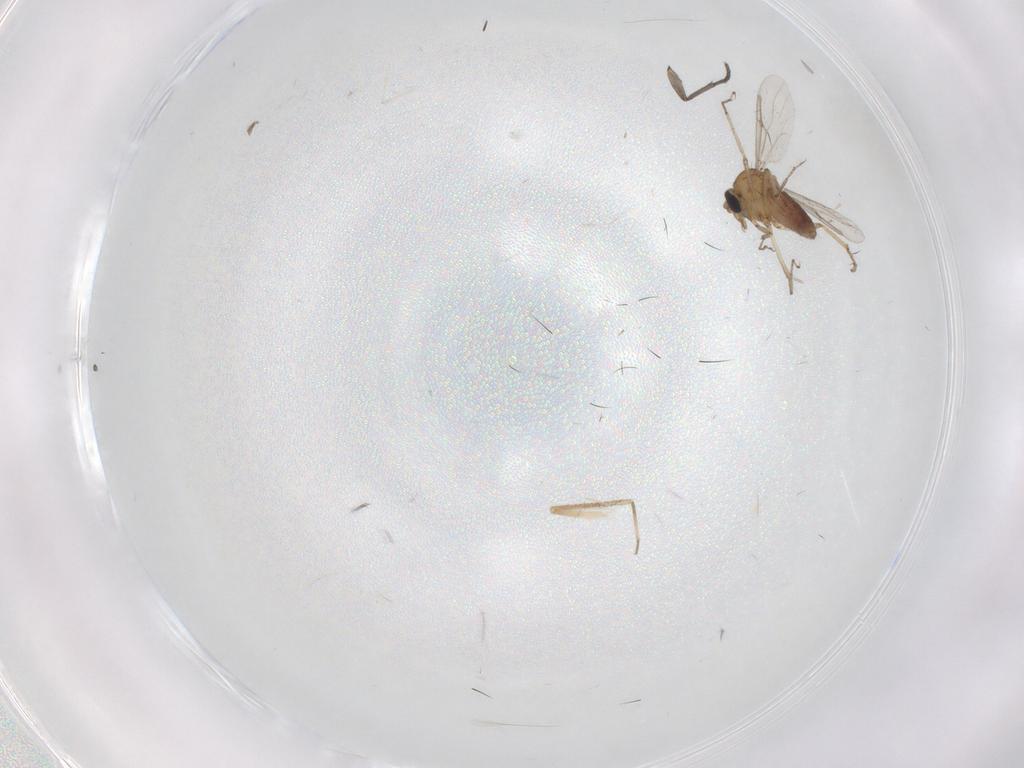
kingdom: Animalia
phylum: Arthropoda
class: Insecta
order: Diptera
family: Sciaridae
